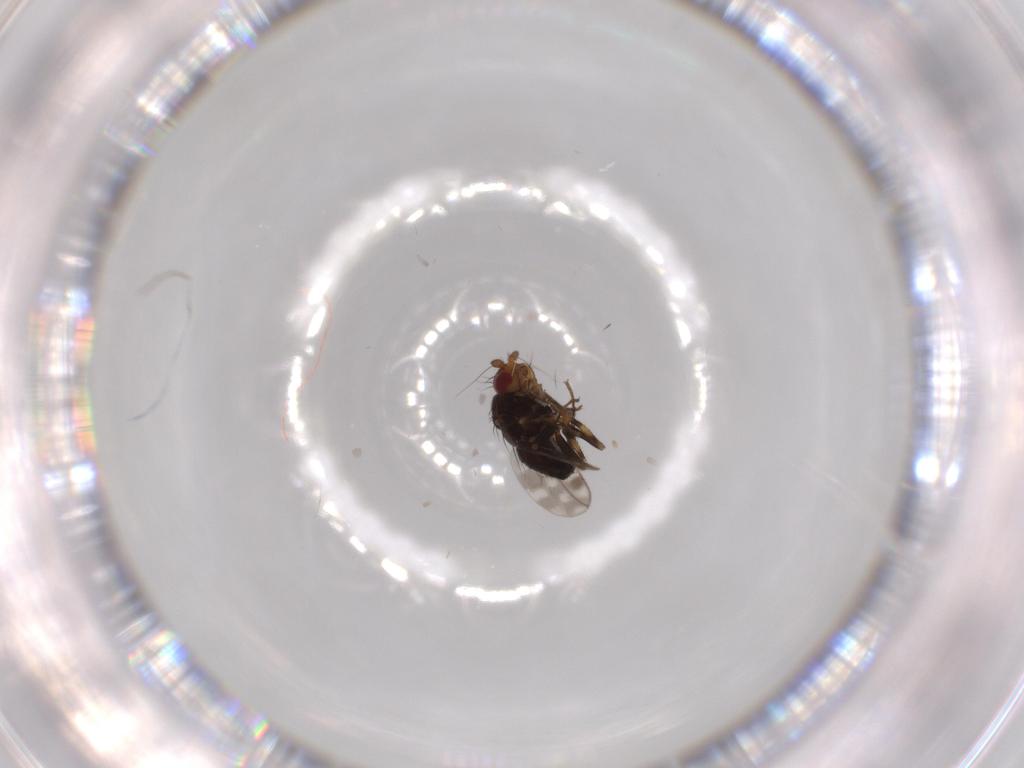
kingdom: Animalia
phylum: Arthropoda
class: Insecta
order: Diptera
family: Sphaeroceridae
